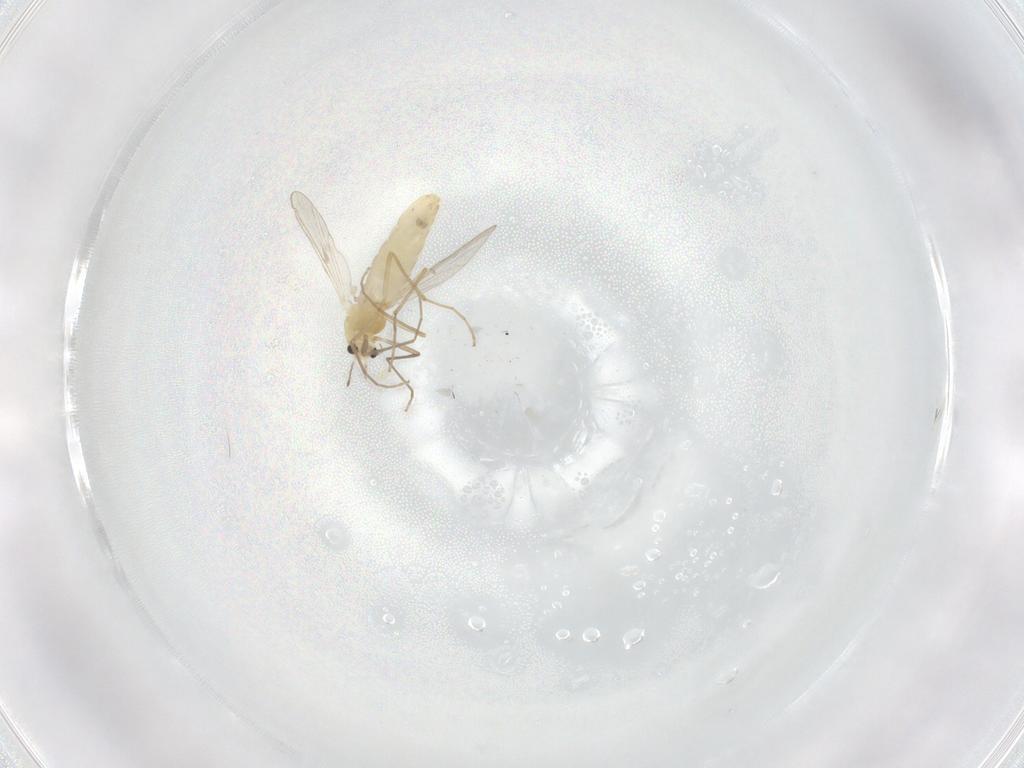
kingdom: Animalia
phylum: Arthropoda
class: Insecta
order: Diptera
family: Chironomidae
